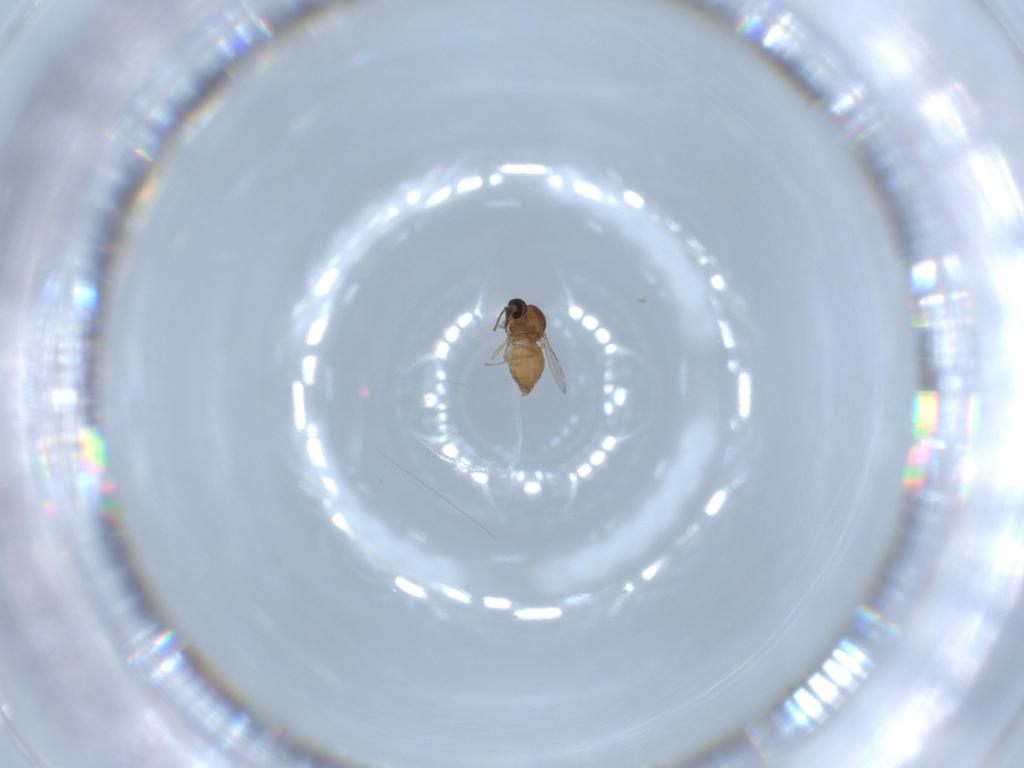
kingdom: Animalia
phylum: Arthropoda
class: Insecta
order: Diptera
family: Ceratopogonidae
